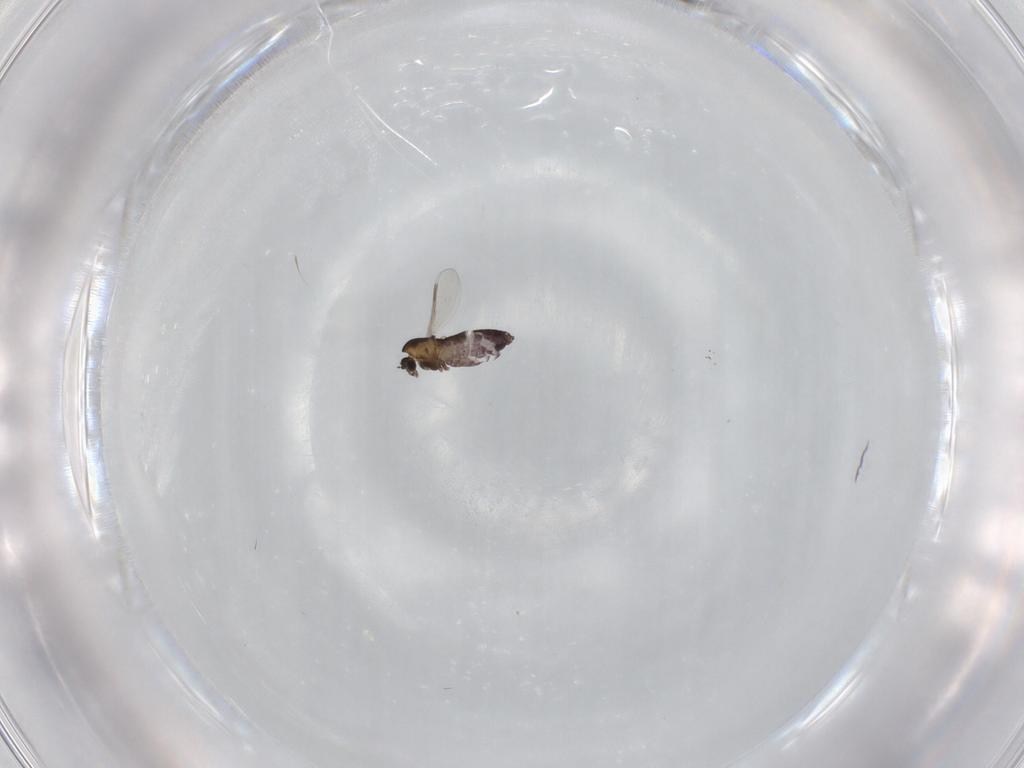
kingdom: Animalia
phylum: Arthropoda
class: Insecta
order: Diptera
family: Chironomidae
